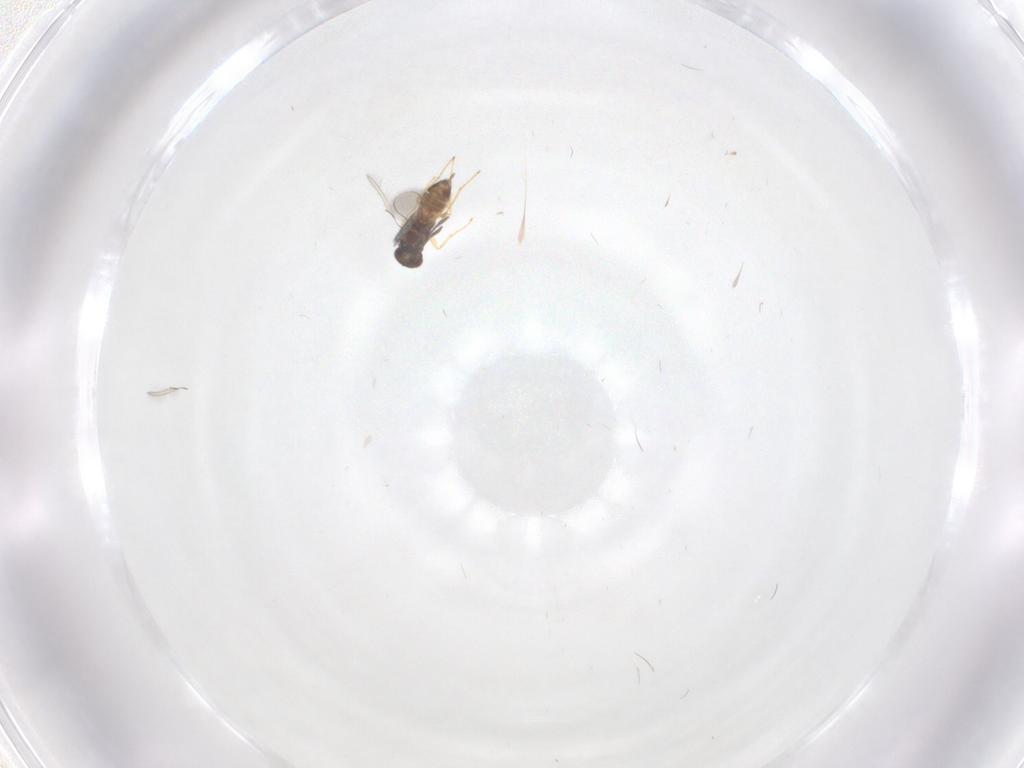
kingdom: Animalia
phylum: Arthropoda
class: Insecta
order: Hymenoptera
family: Mymaridae
